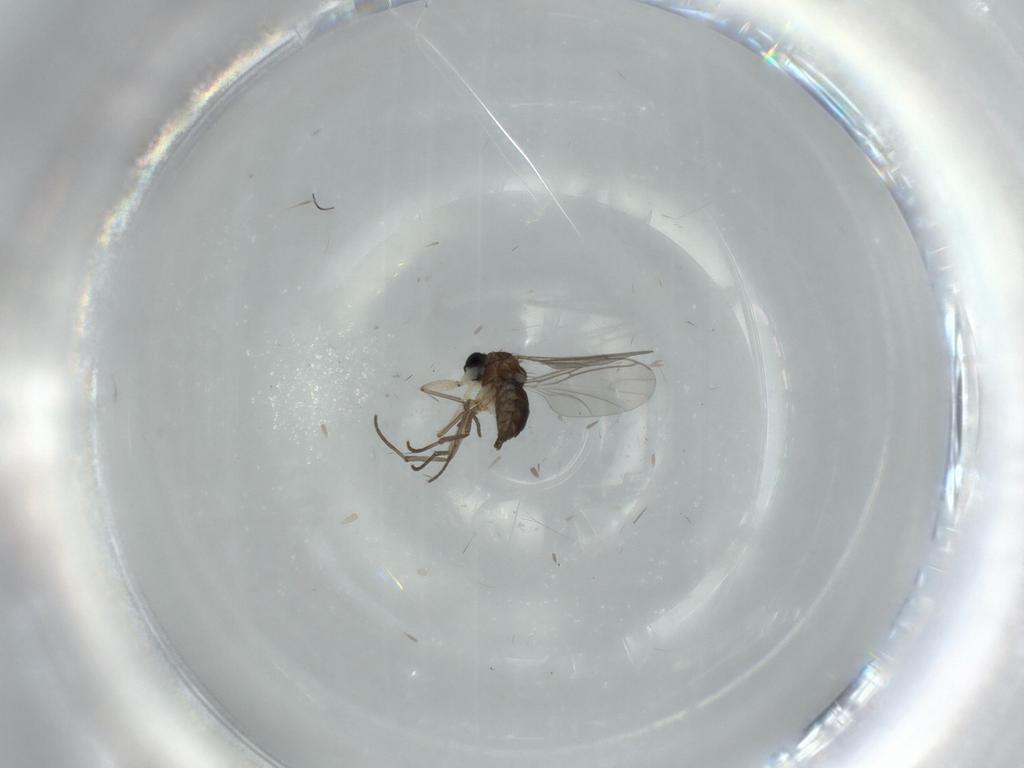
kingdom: Animalia
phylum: Arthropoda
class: Insecta
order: Diptera
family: Sciaridae
